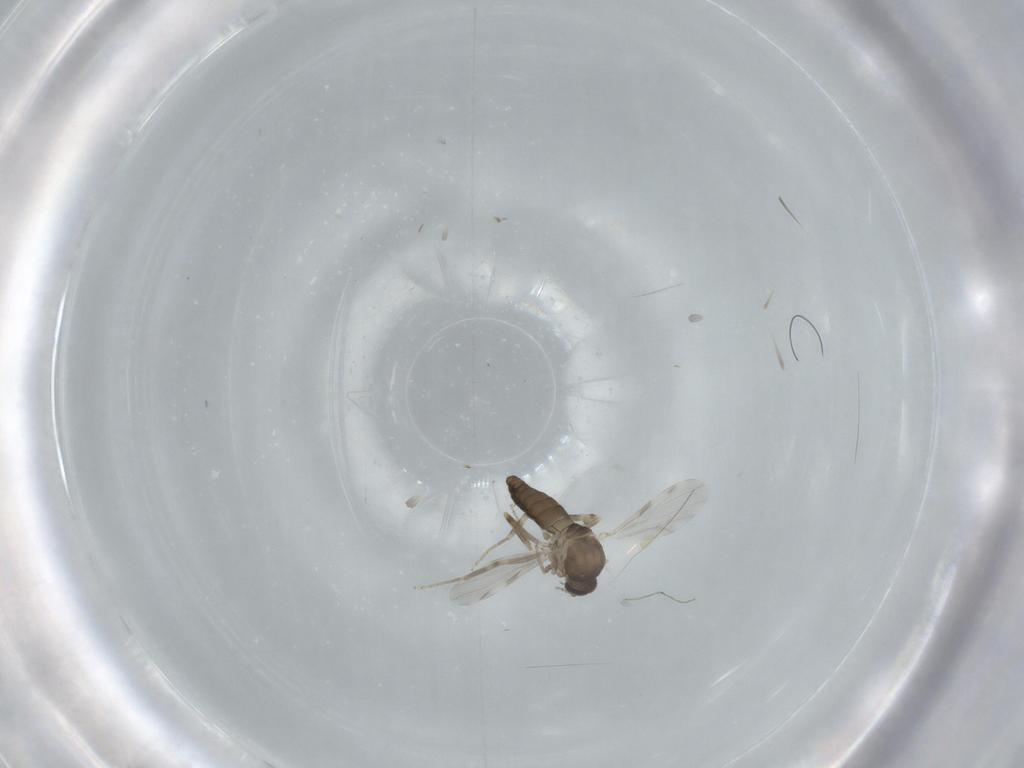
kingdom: Animalia
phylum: Arthropoda
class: Insecta
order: Diptera
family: Ceratopogonidae
